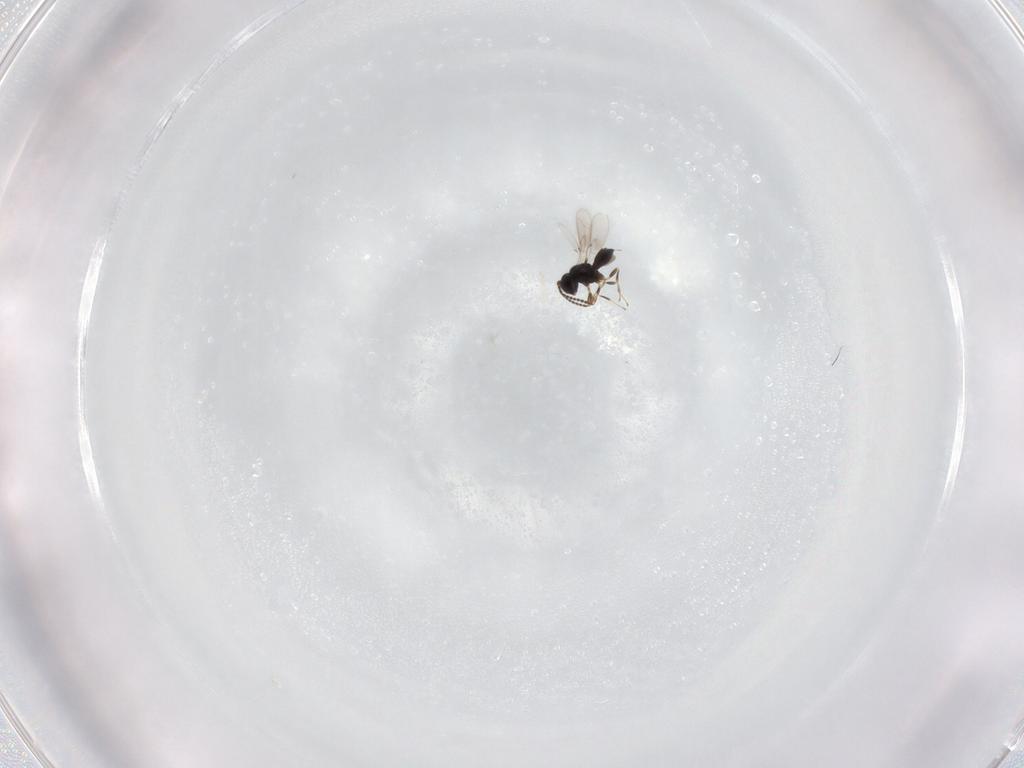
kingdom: Animalia
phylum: Arthropoda
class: Insecta
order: Hymenoptera
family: Scelionidae
